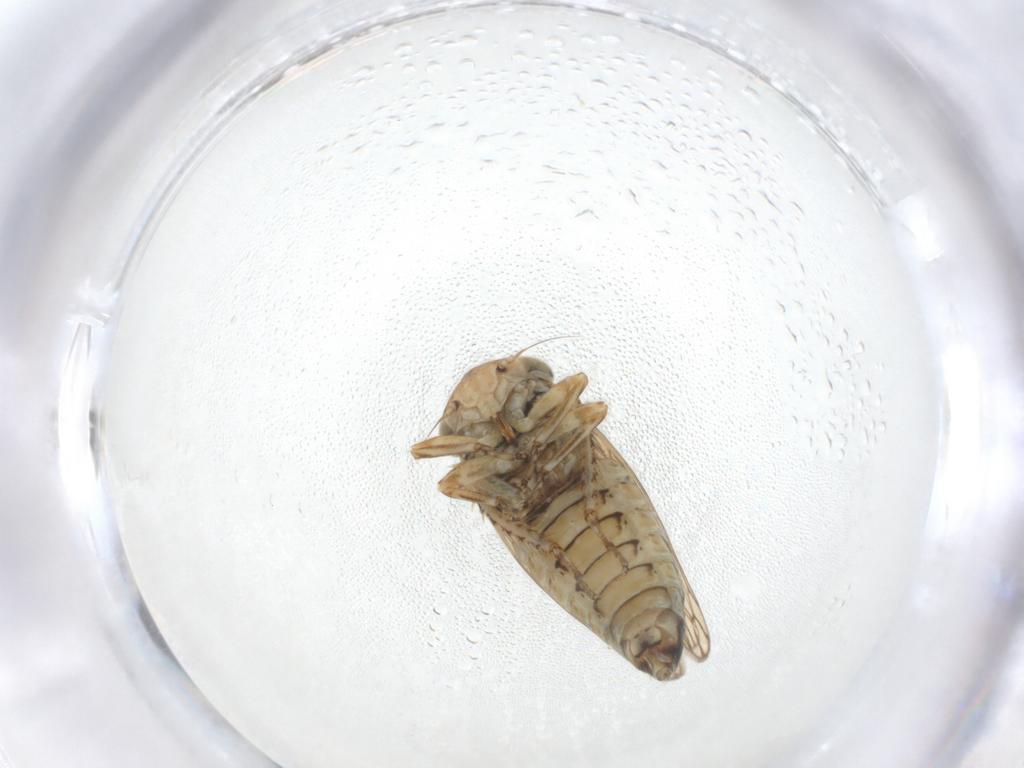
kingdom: Animalia
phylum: Arthropoda
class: Insecta
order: Hemiptera
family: Cicadellidae
